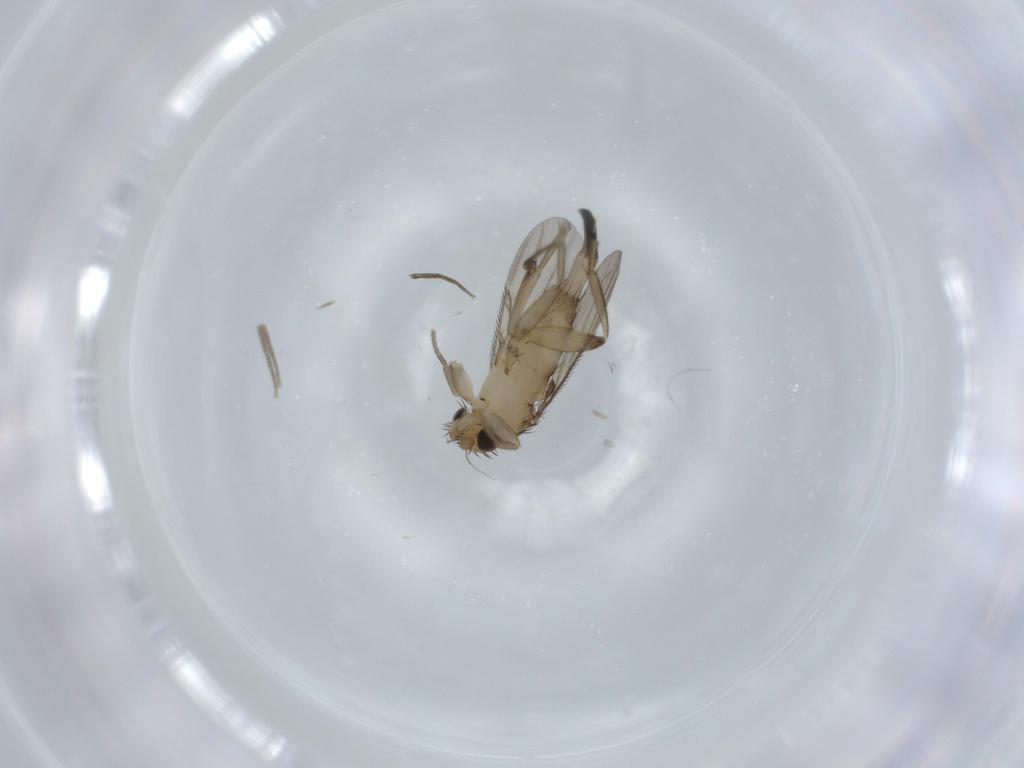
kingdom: Animalia
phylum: Arthropoda
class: Insecta
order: Diptera
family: Phoridae
